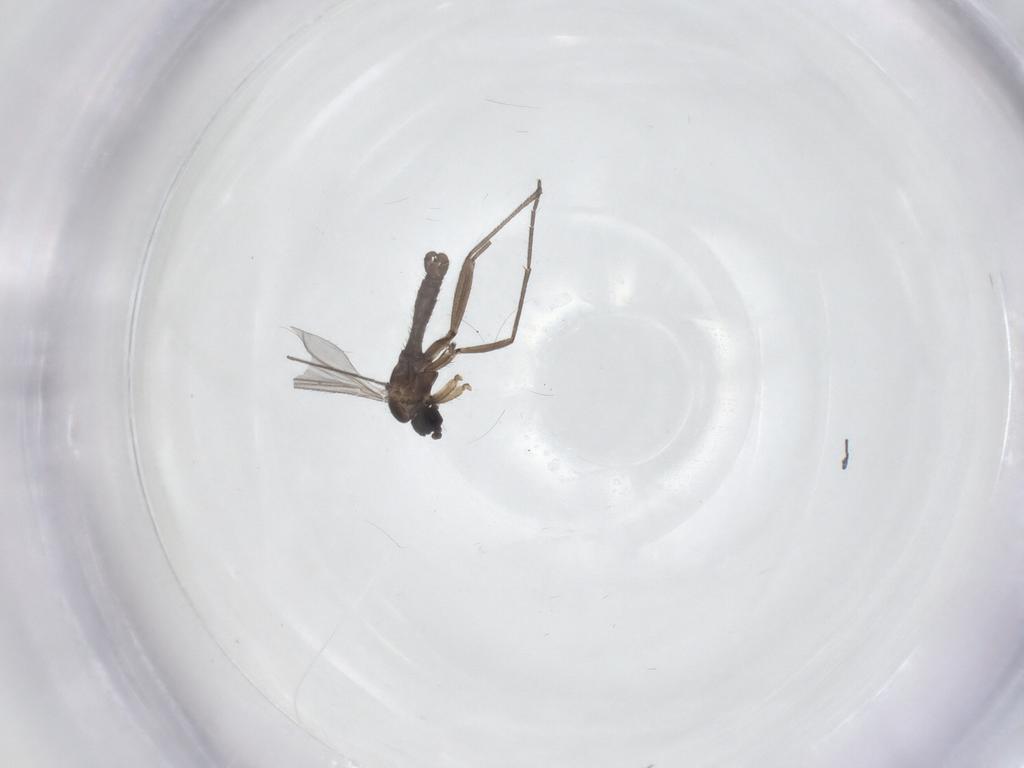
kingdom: Animalia
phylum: Arthropoda
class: Insecta
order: Diptera
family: Sciaridae
